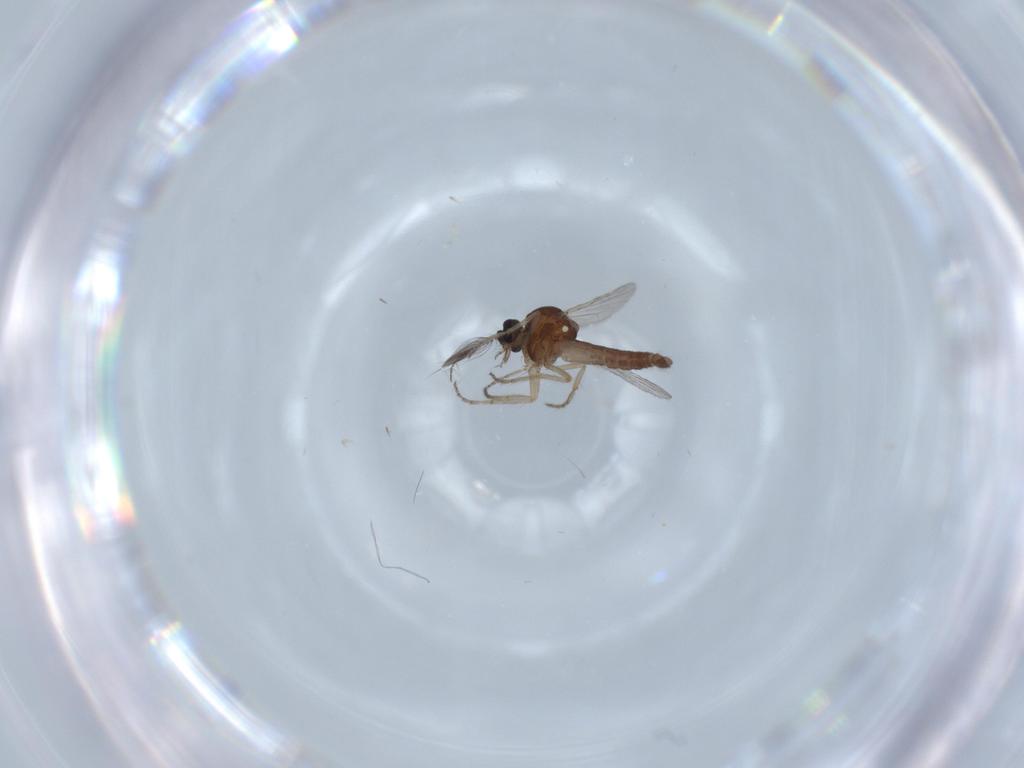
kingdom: Animalia
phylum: Arthropoda
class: Insecta
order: Diptera
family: Ceratopogonidae
